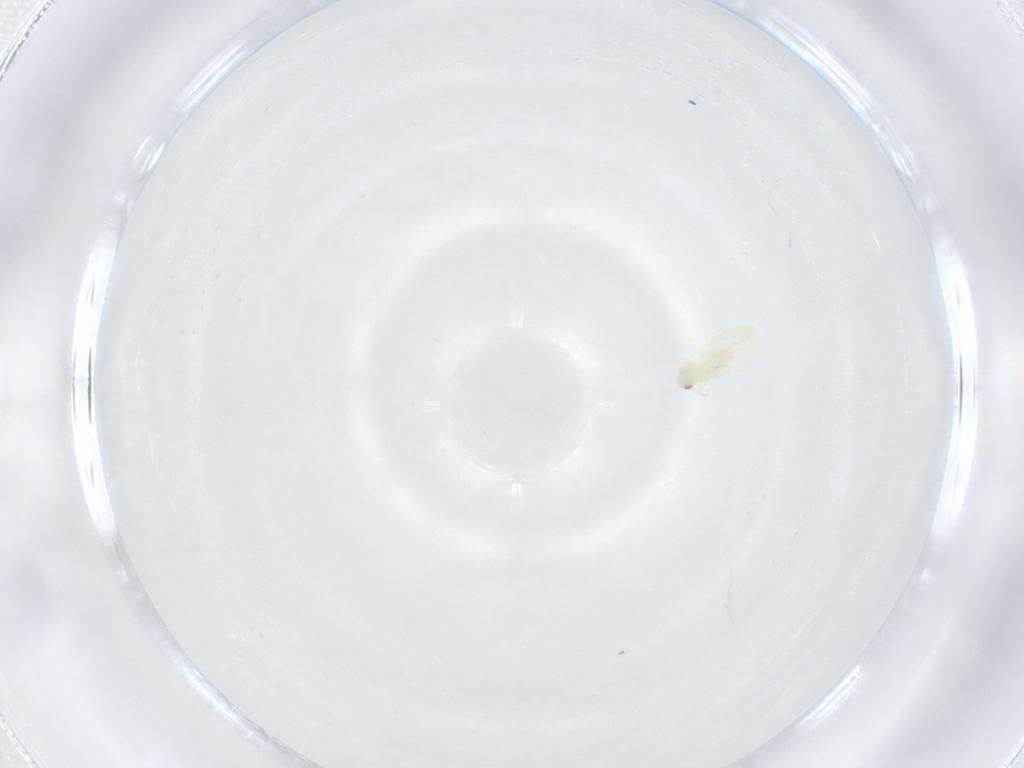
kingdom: Animalia
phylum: Arthropoda
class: Insecta
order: Hemiptera
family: Aleyrodidae
